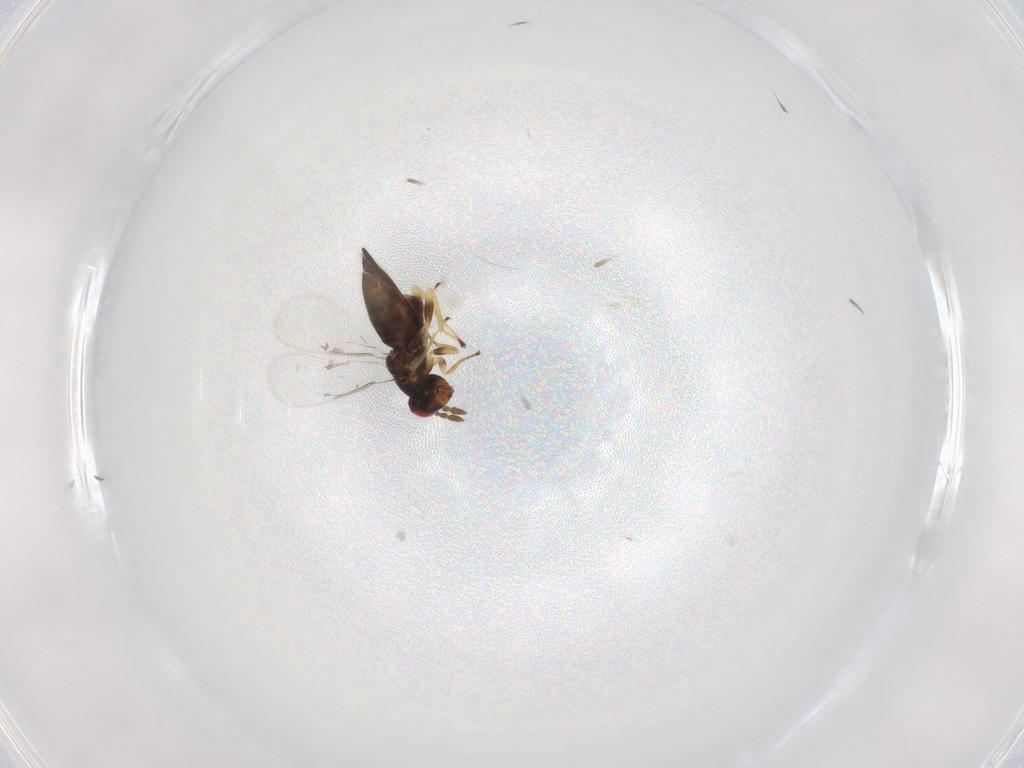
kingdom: Animalia
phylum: Arthropoda
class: Insecta
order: Hymenoptera
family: Eulophidae
